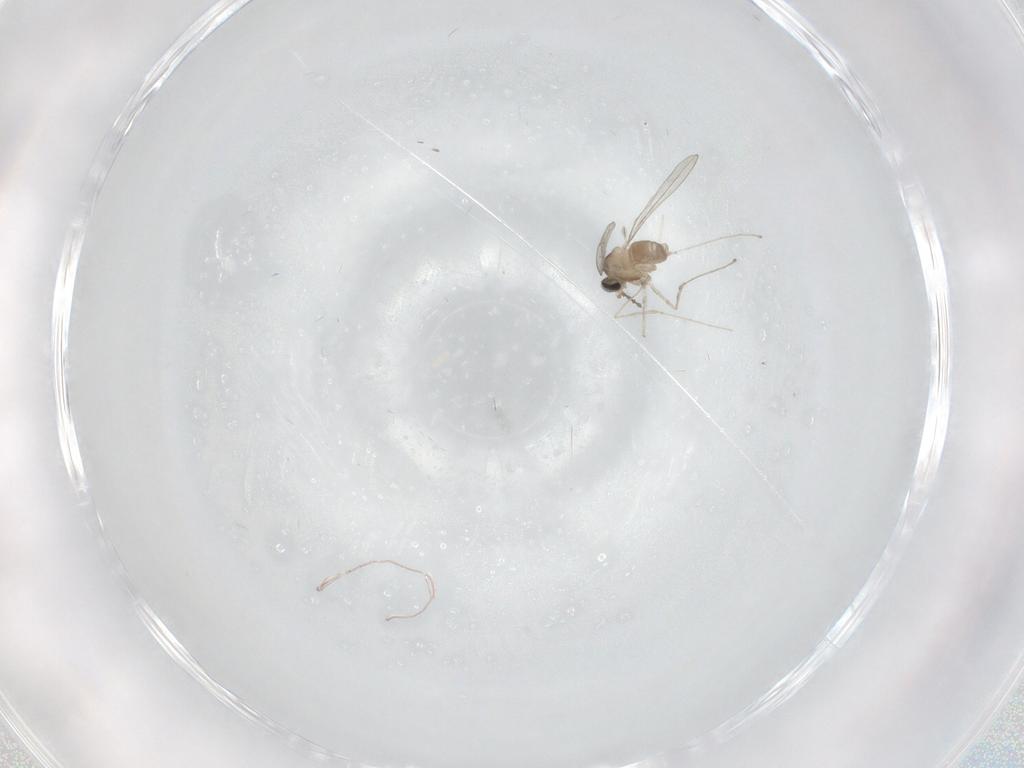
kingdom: Animalia
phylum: Arthropoda
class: Insecta
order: Diptera
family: Cecidomyiidae
